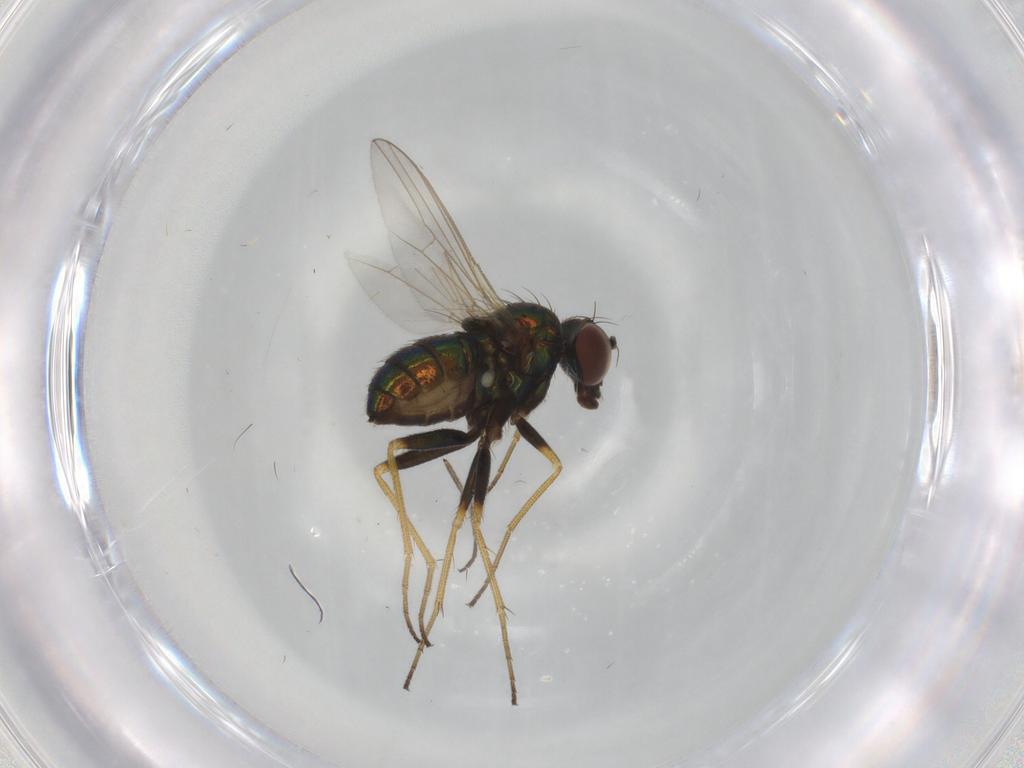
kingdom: Animalia
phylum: Arthropoda
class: Insecta
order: Diptera
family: Dolichopodidae
